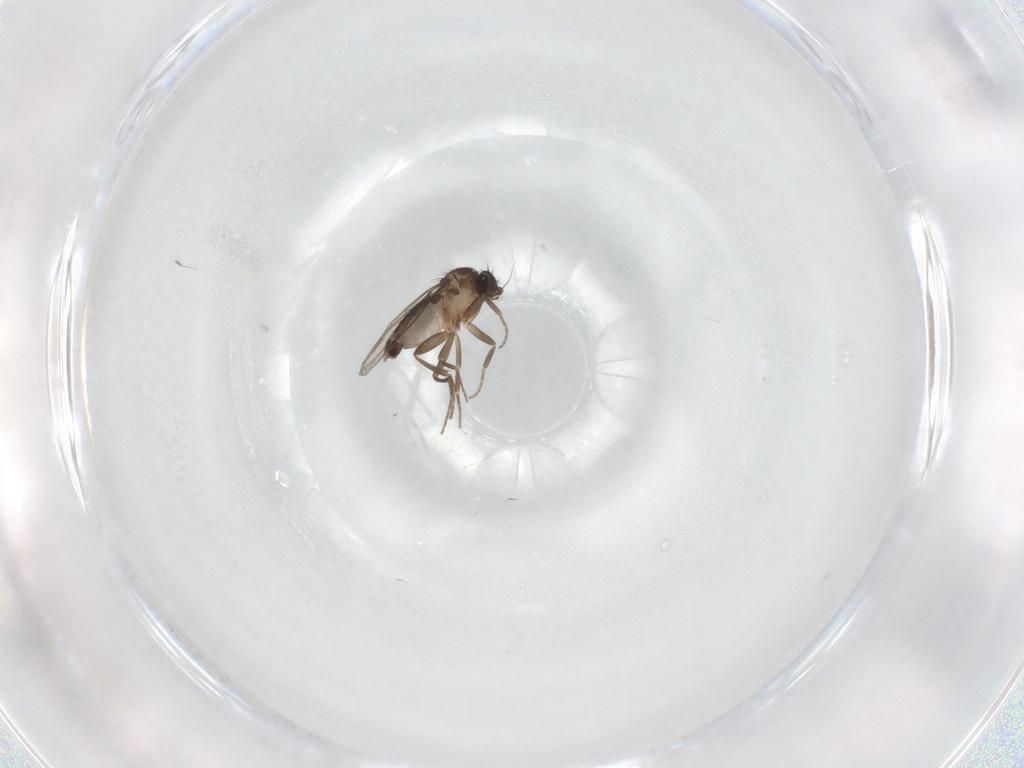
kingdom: Animalia
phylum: Arthropoda
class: Insecta
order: Diptera
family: Phoridae
